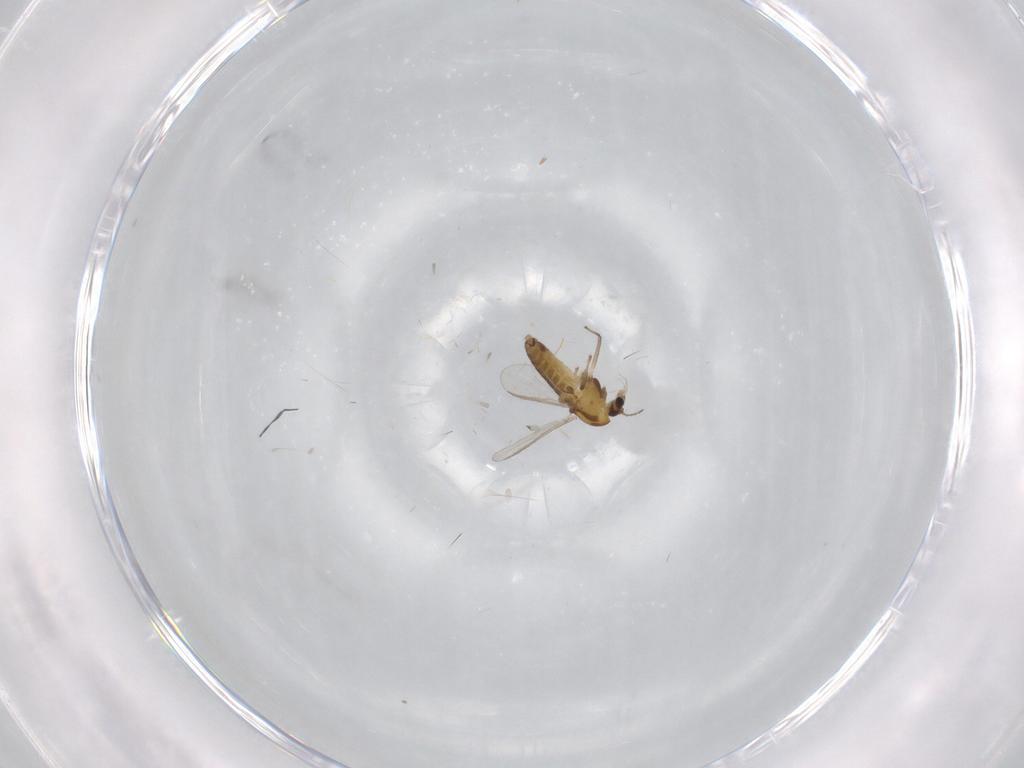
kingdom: Animalia
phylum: Arthropoda
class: Insecta
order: Diptera
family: Chironomidae
